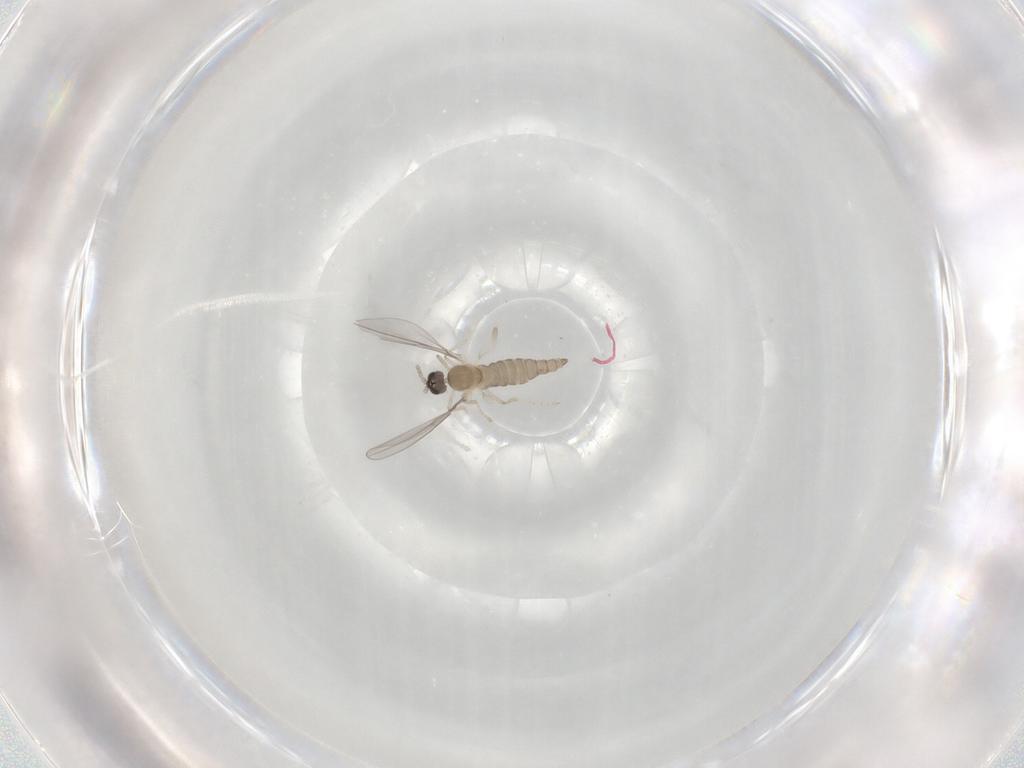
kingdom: Animalia
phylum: Arthropoda
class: Insecta
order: Diptera
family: Cecidomyiidae
